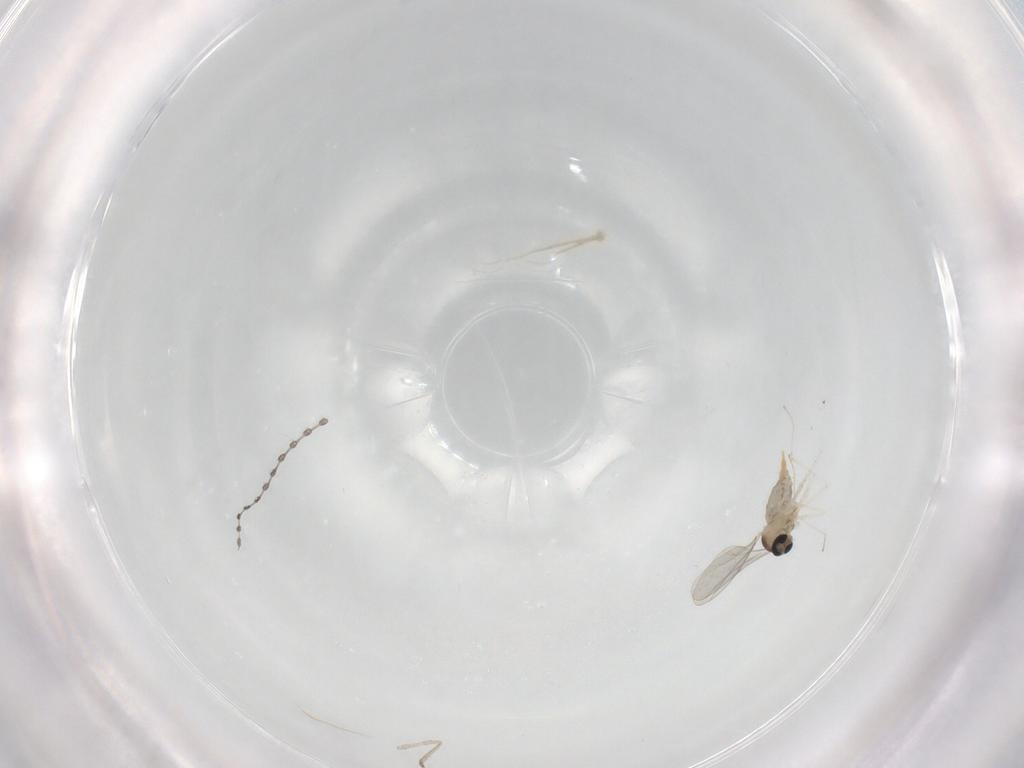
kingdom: Animalia
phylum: Arthropoda
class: Insecta
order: Diptera
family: Cecidomyiidae
